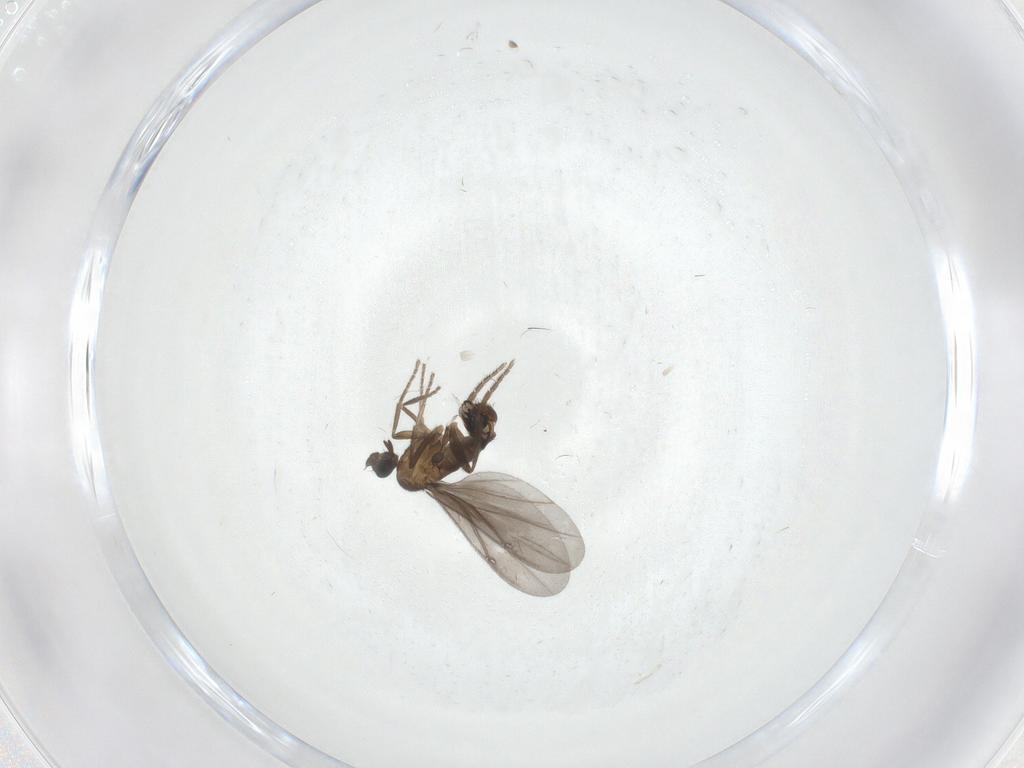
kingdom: Animalia
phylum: Arthropoda
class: Insecta
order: Diptera
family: Phoridae
